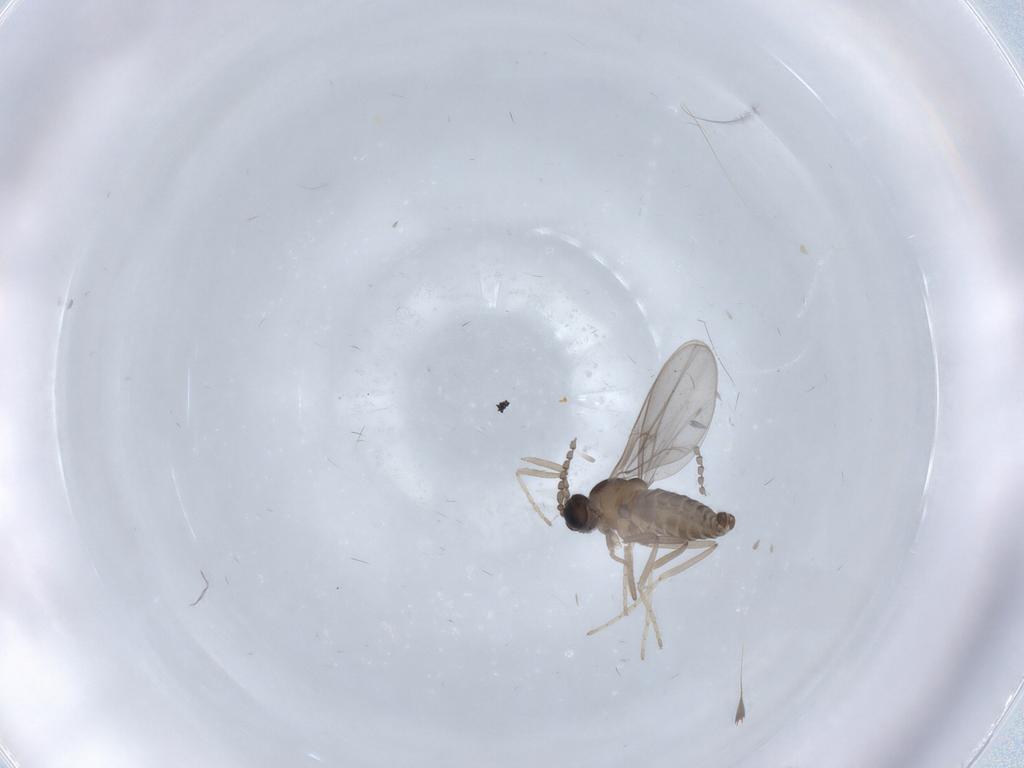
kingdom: Animalia
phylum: Arthropoda
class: Insecta
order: Diptera
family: Cecidomyiidae
